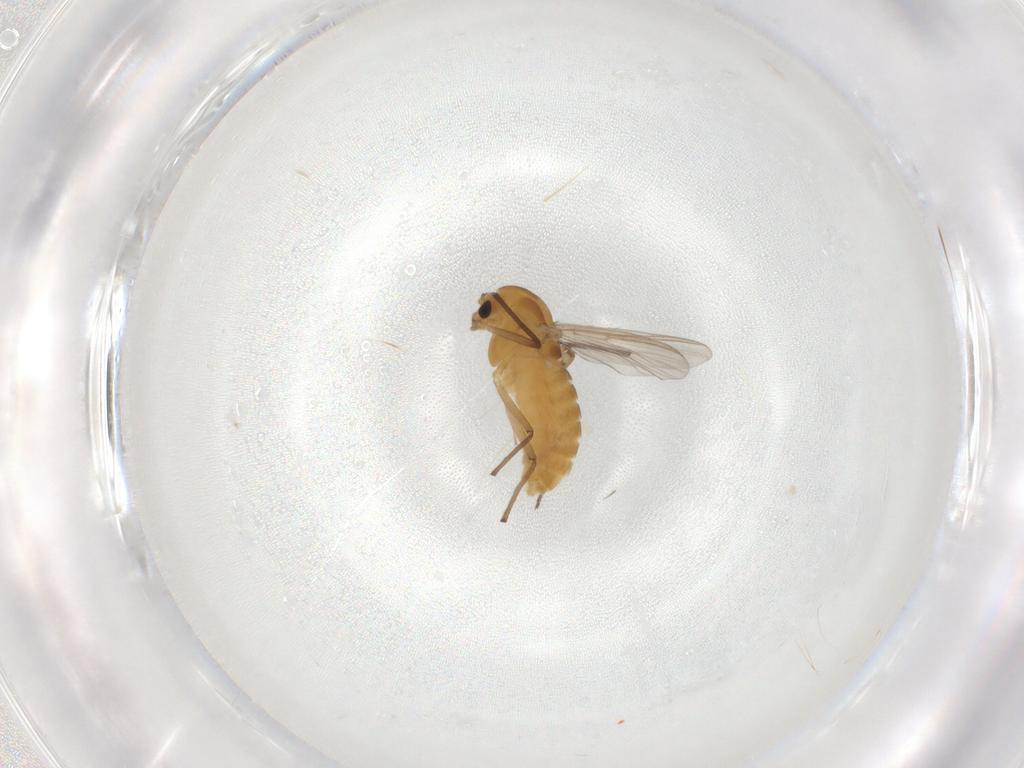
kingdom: Animalia
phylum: Arthropoda
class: Insecta
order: Diptera
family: Chironomidae
